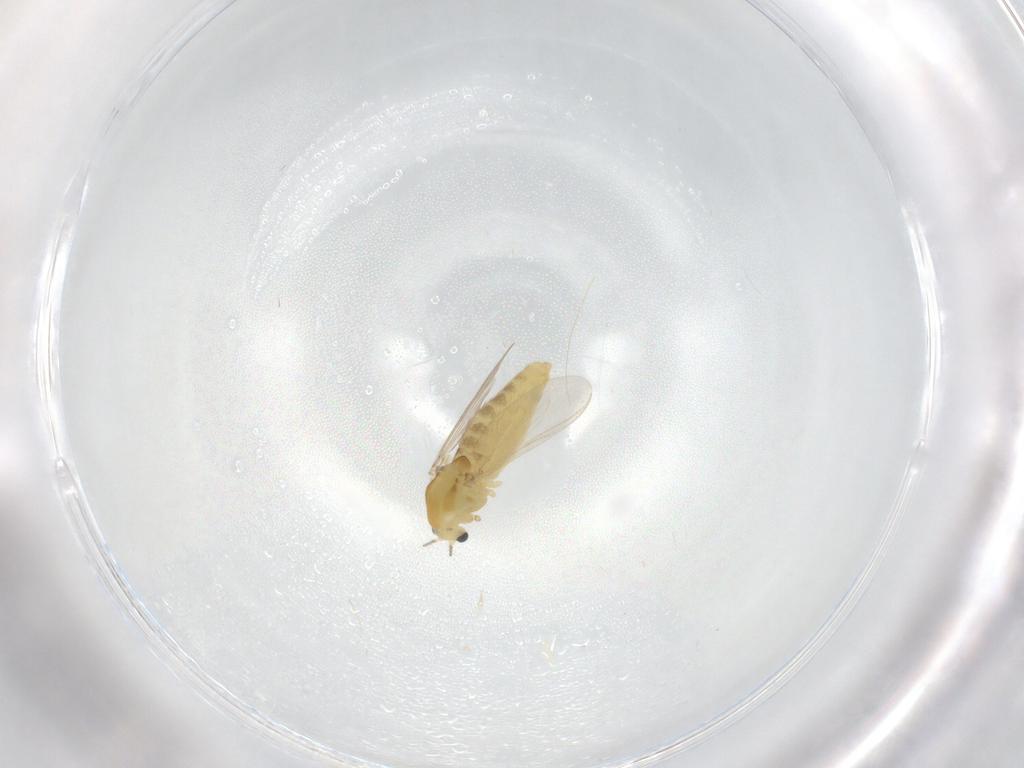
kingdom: Animalia
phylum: Arthropoda
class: Insecta
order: Diptera
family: Chironomidae
